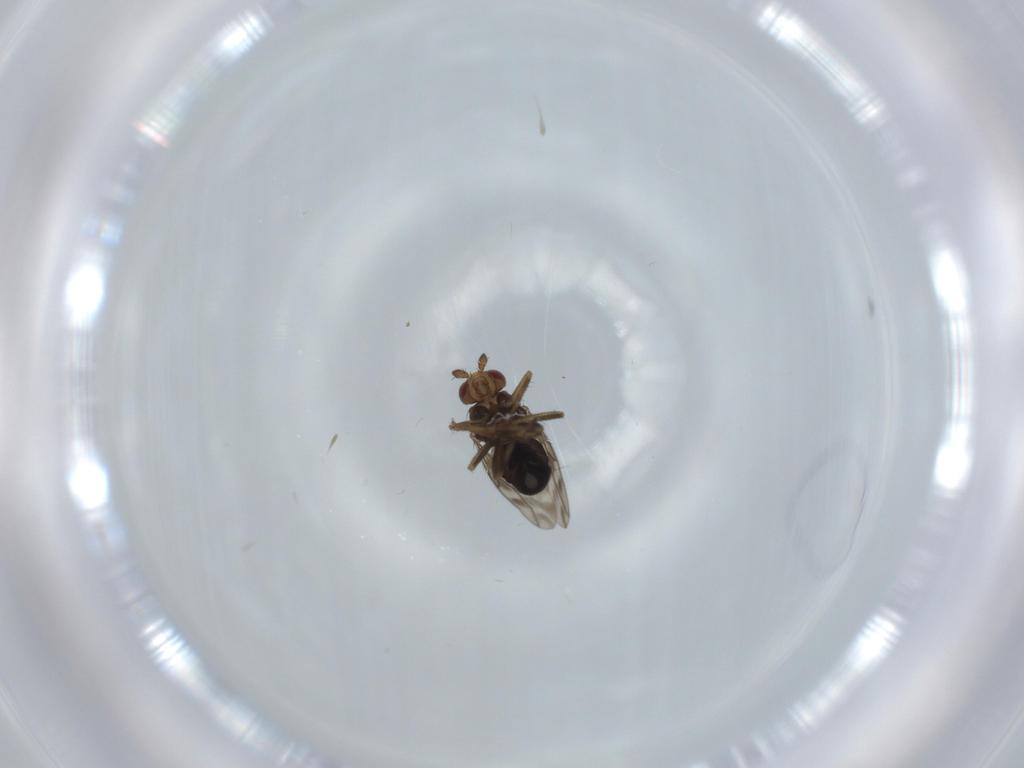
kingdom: Animalia
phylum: Arthropoda
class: Insecta
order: Diptera
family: Sphaeroceridae
